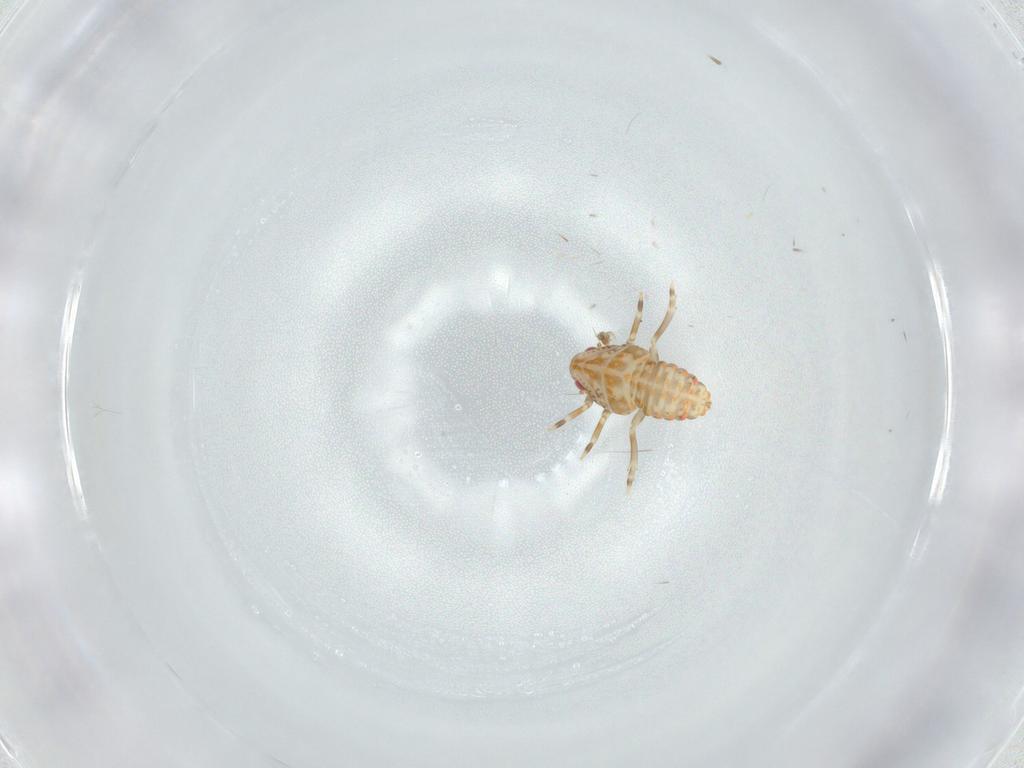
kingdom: Animalia
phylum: Arthropoda
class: Insecta
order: Hemiptera
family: Flatidae
